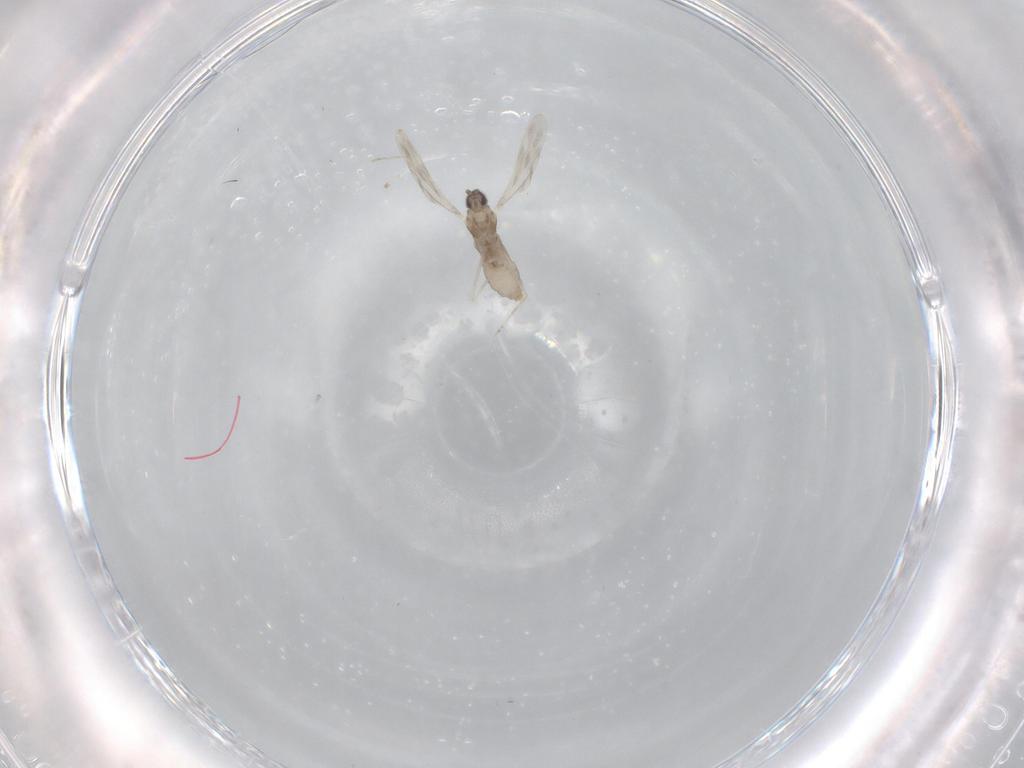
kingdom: Animalia
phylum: Arthropoda
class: Insecta
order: Diptera
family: Cecidomyiidae
